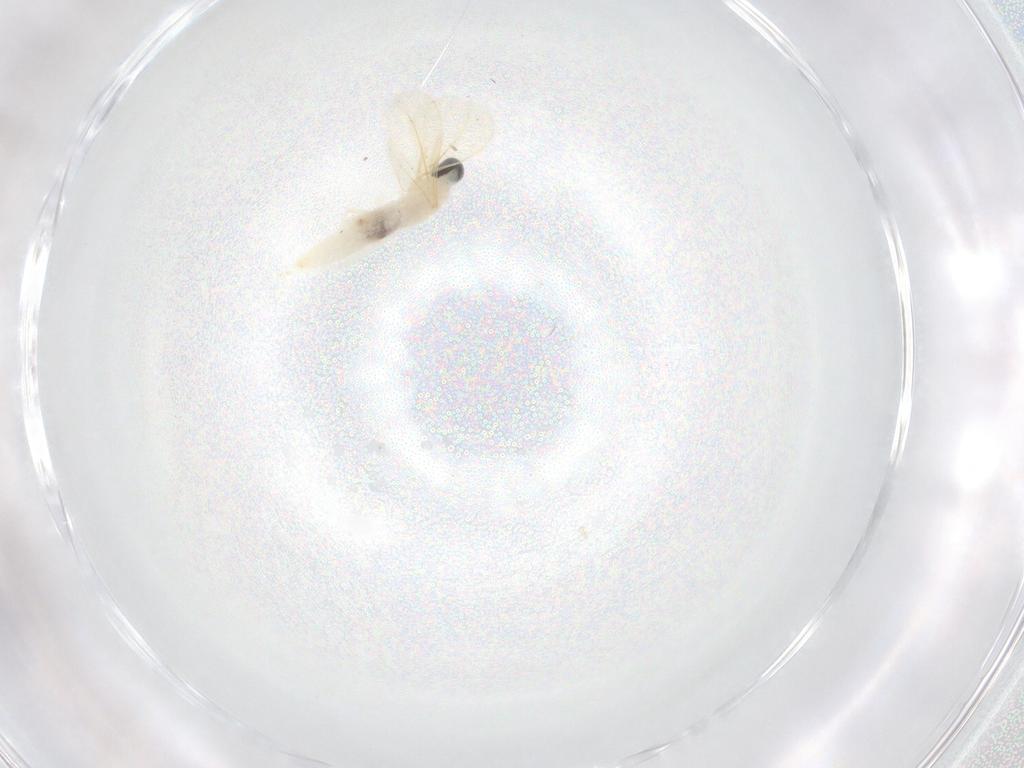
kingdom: Animalia
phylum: Arthropoda
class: Insecta
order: Diptera
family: Cecidomyiidae
